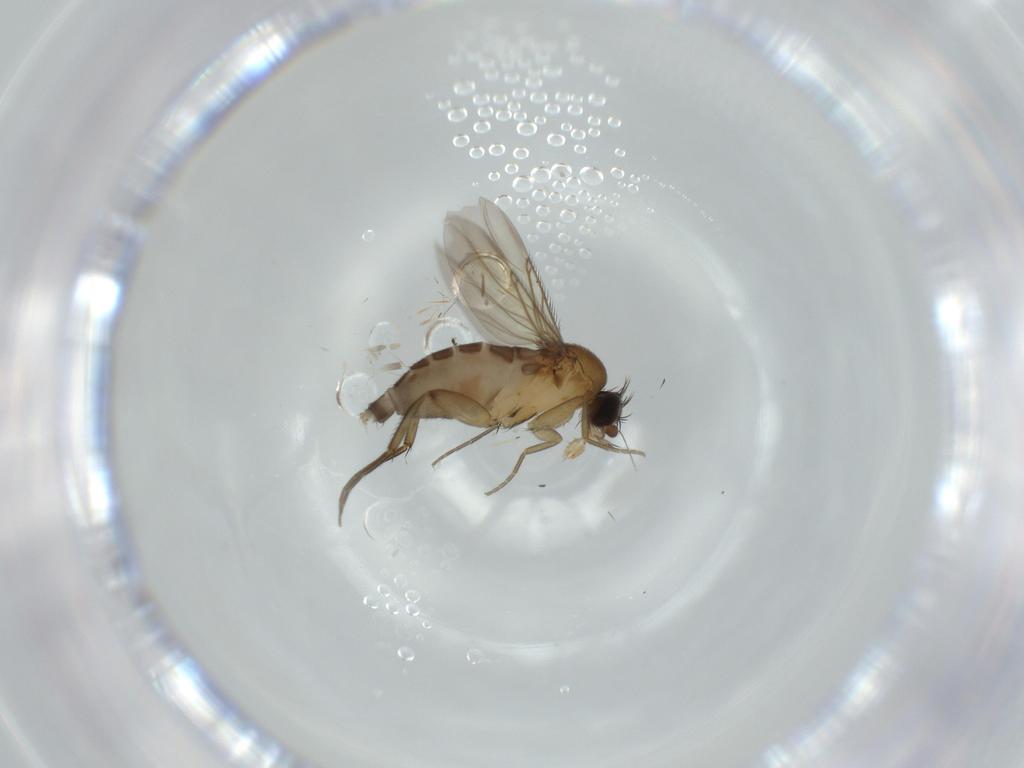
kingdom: Animalia
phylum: Arthropoda
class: Insecta
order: Diptera
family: Phoridae
